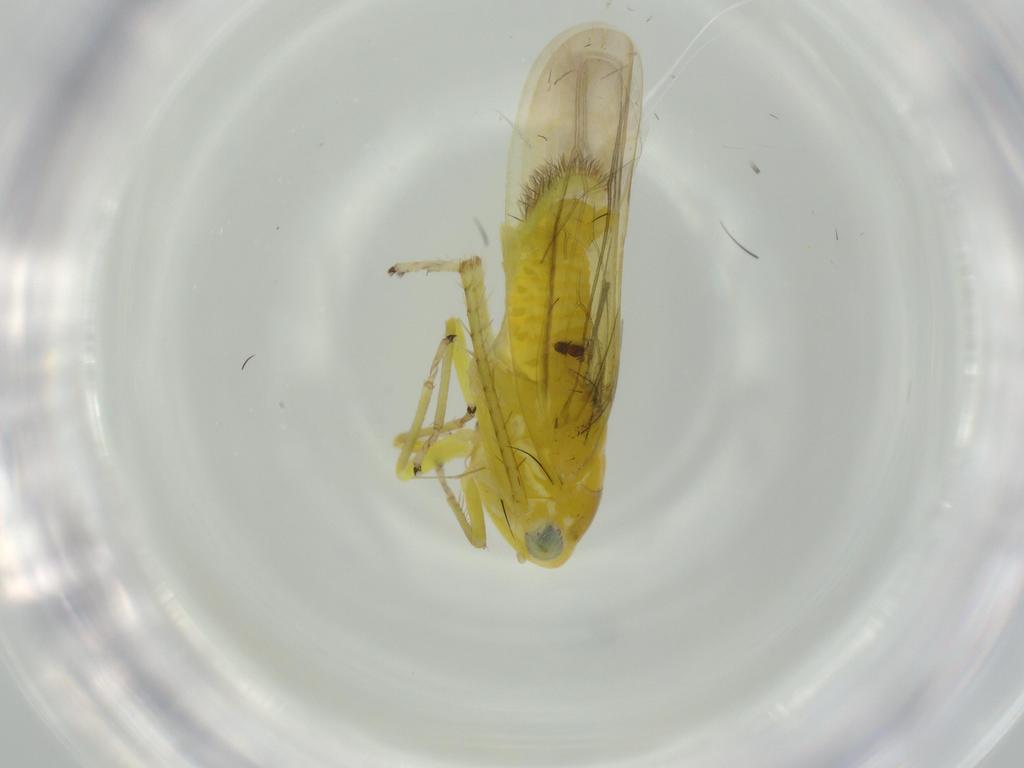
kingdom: Animalia
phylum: Arthropoda
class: Insecta
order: Hemiptera
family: Aphrophoridae
